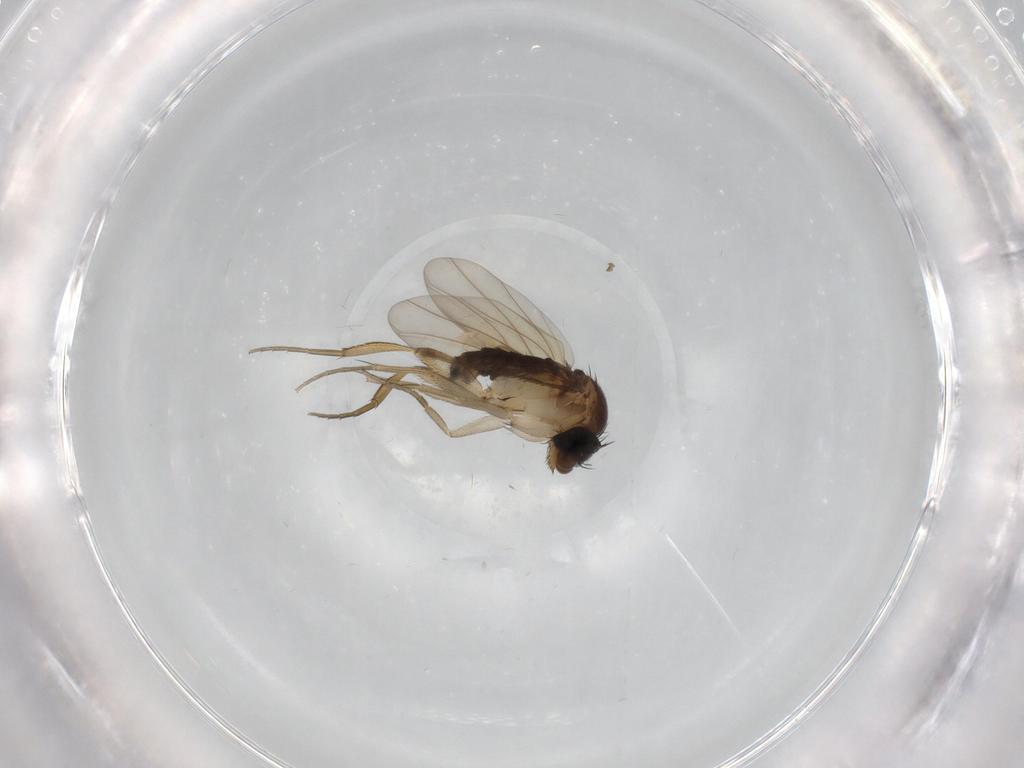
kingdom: Animalia
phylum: Arthropoda
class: Insecta
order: Diptera
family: Phoridae
